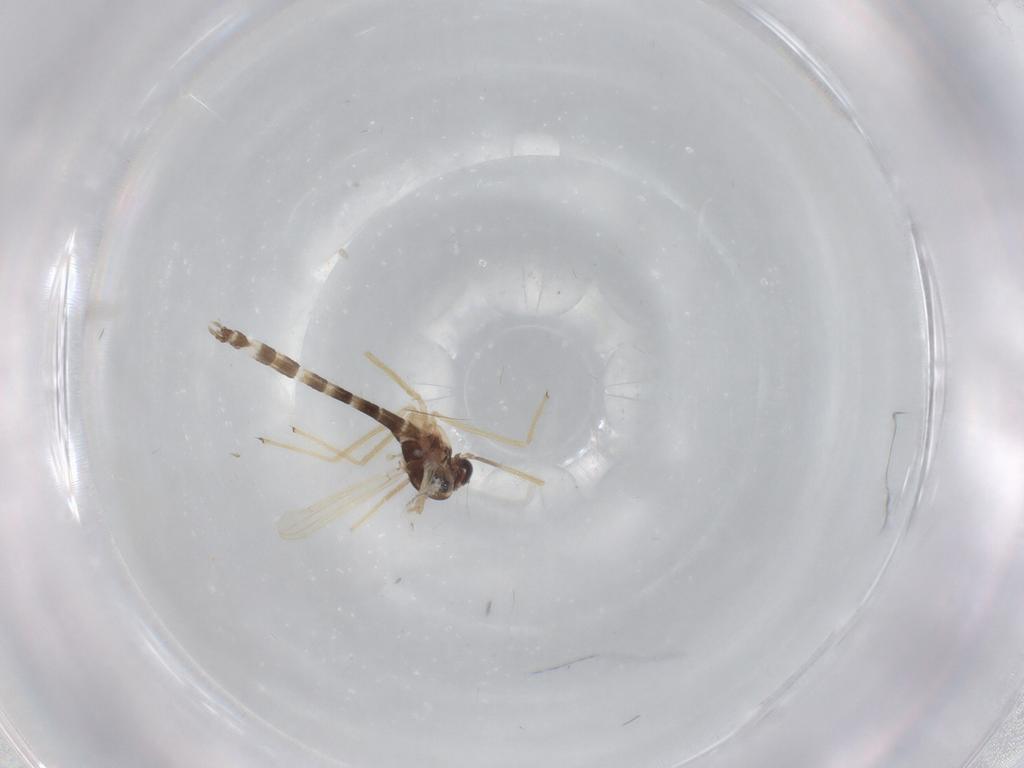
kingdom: Animalia
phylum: Arthropoda
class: Insecta
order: Diptera
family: Chironomidae
